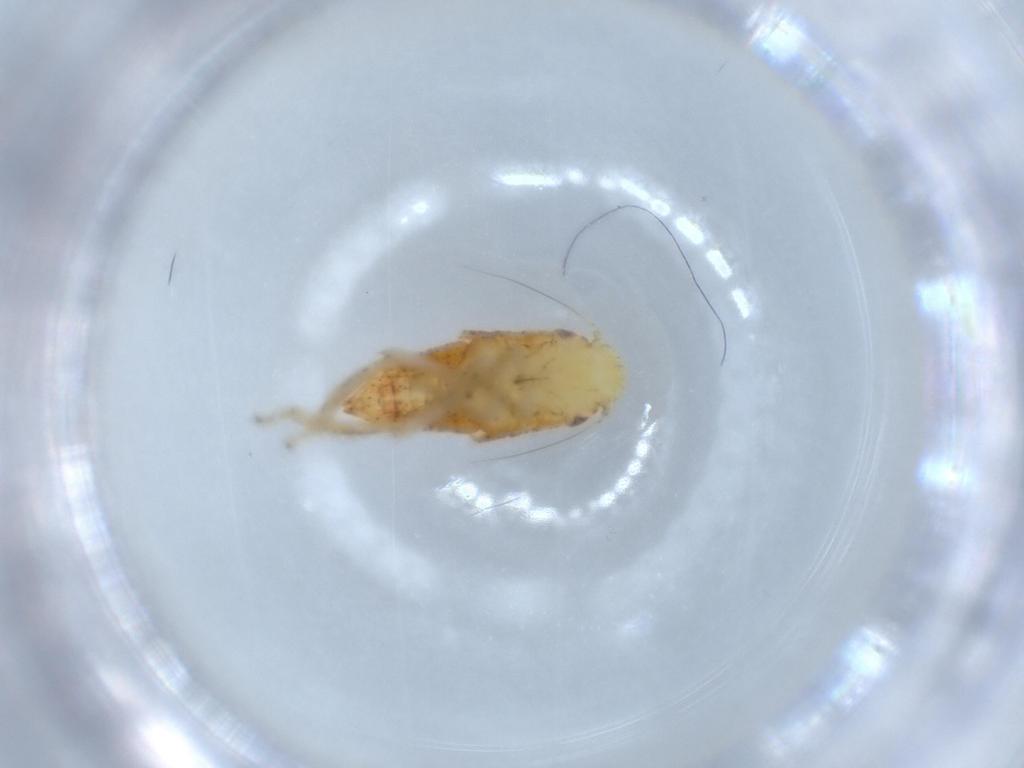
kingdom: Animalia
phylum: Arthropoda
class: Insecta
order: Hemiptera
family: Cicadellidae
